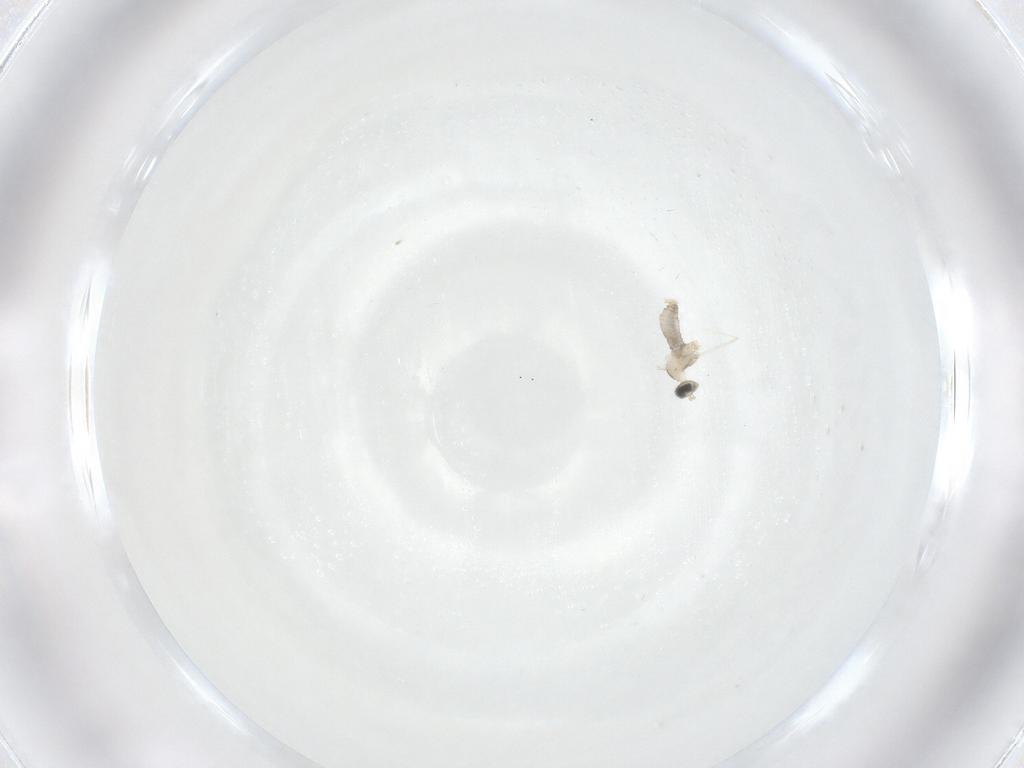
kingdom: Animalia
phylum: Arthropoda
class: Insecta
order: Diptera
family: Cecidomyiidae
